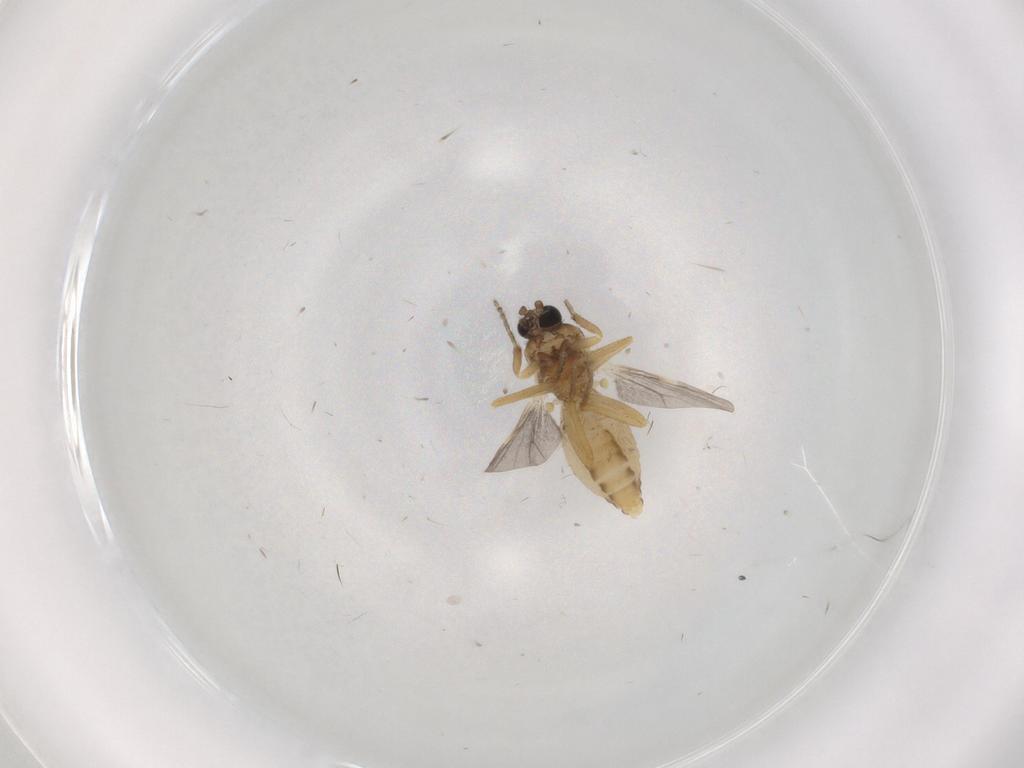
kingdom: Animalia
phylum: Arthropoda
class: Insecta
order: Diptera
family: Ceratopogonidae
